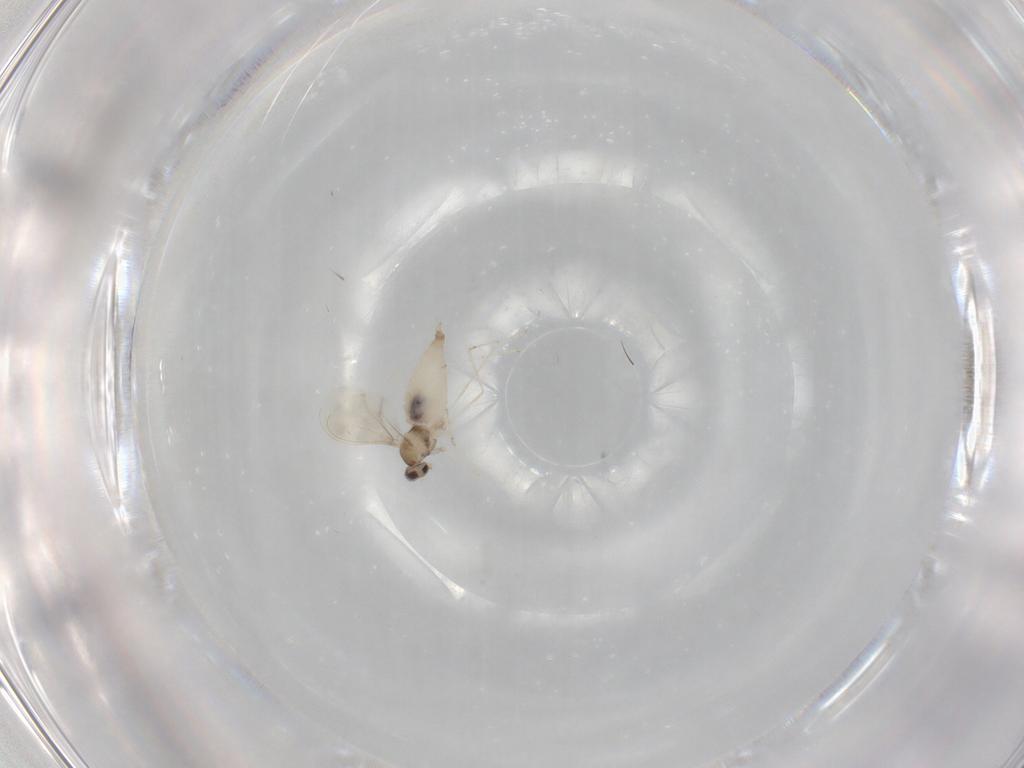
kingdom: Animalia
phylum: Arthropoda
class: Insecta
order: Diptera
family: Cecidomyiidae
